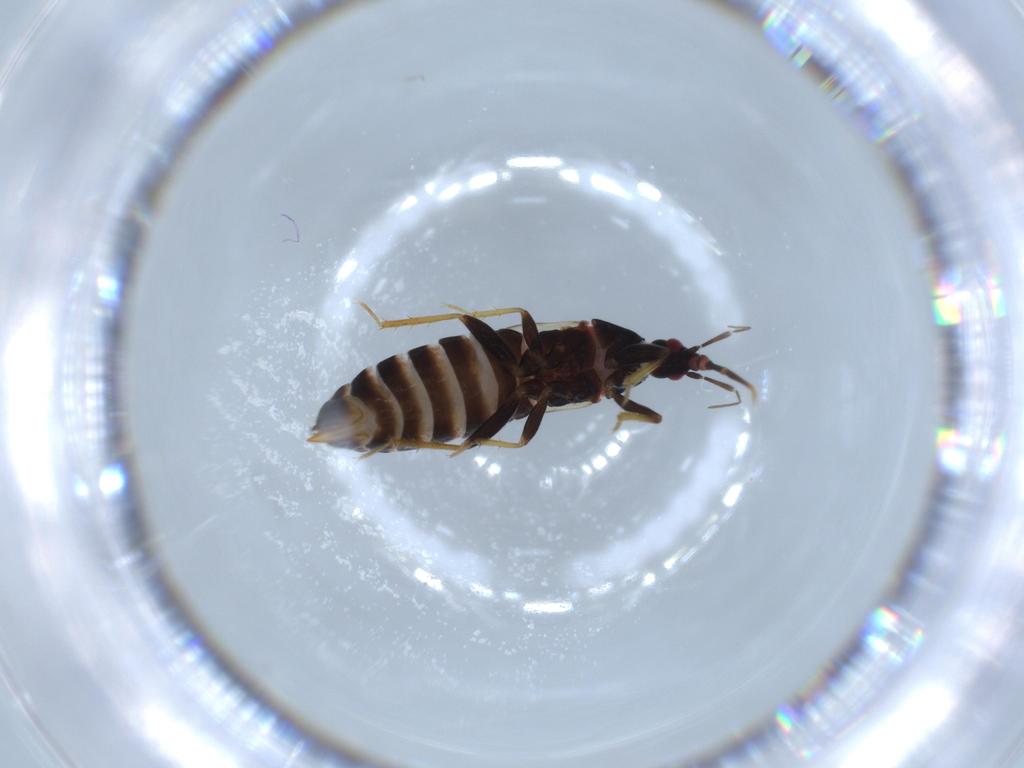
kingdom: Animalia
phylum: Arthropoda
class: Insecta
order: Hemiptera
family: Anthocoridae
